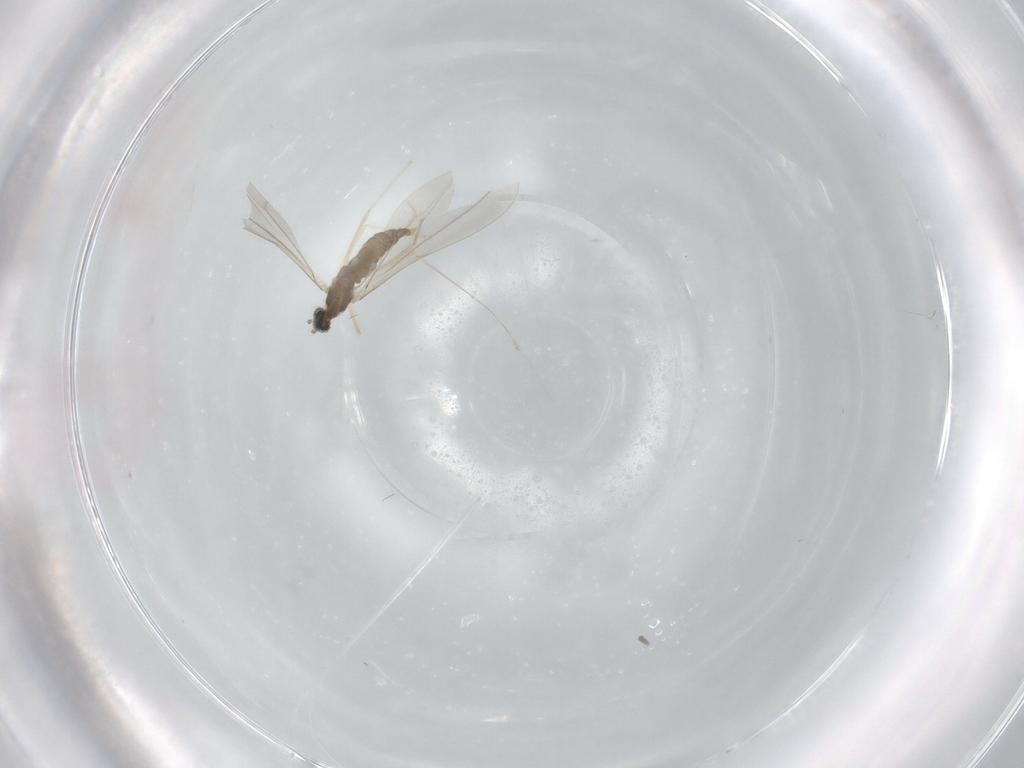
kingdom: Animalia
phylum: Arthropoda
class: Insecta
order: Diptera
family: Cecidomyiidae
